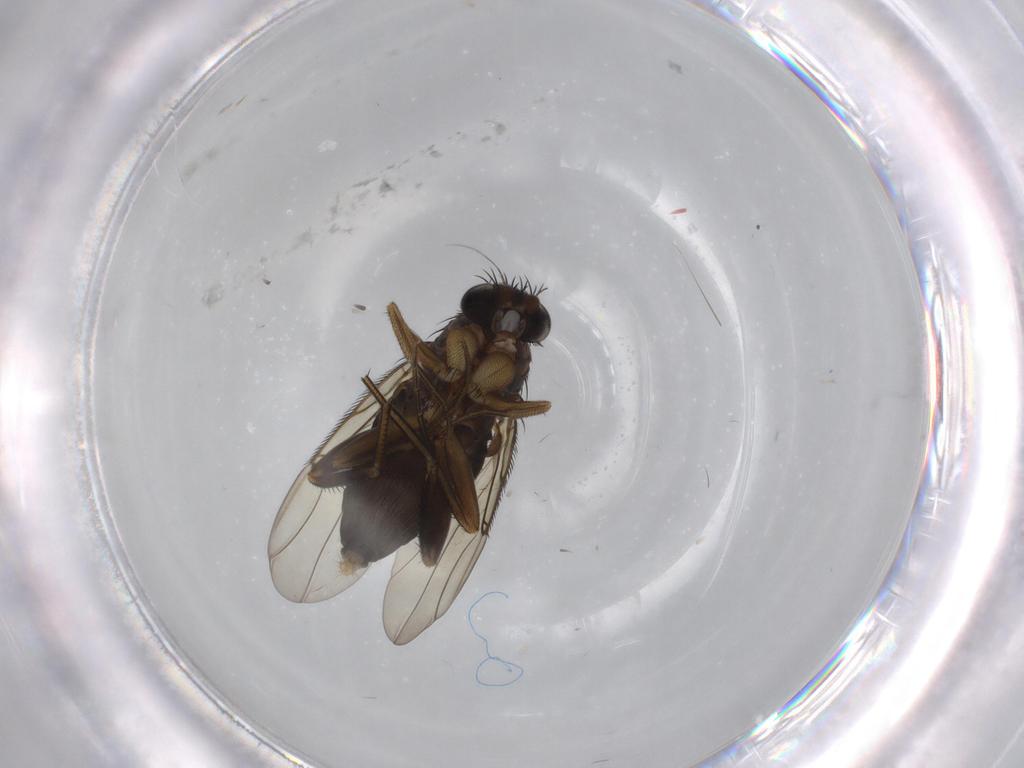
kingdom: Animalia
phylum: Arthropoda
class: Insecta
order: Diptera
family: Phoridae
